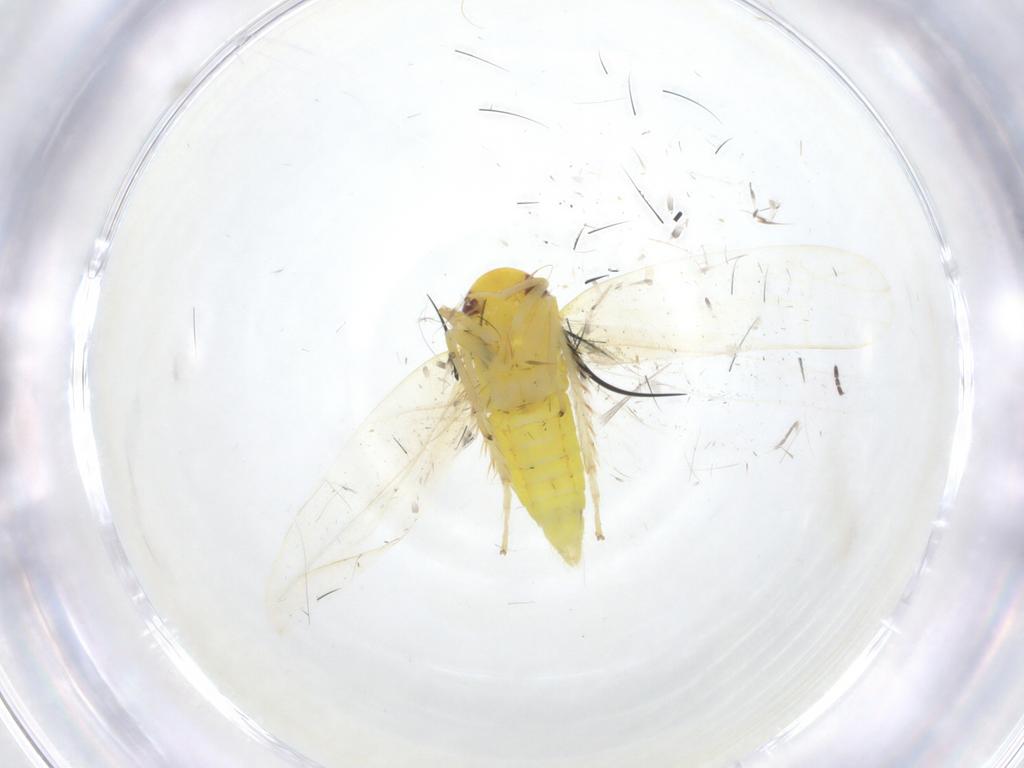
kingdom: Animalia
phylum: Arthropoda
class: Insecta
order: Hemiptera
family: Cicadellidae
